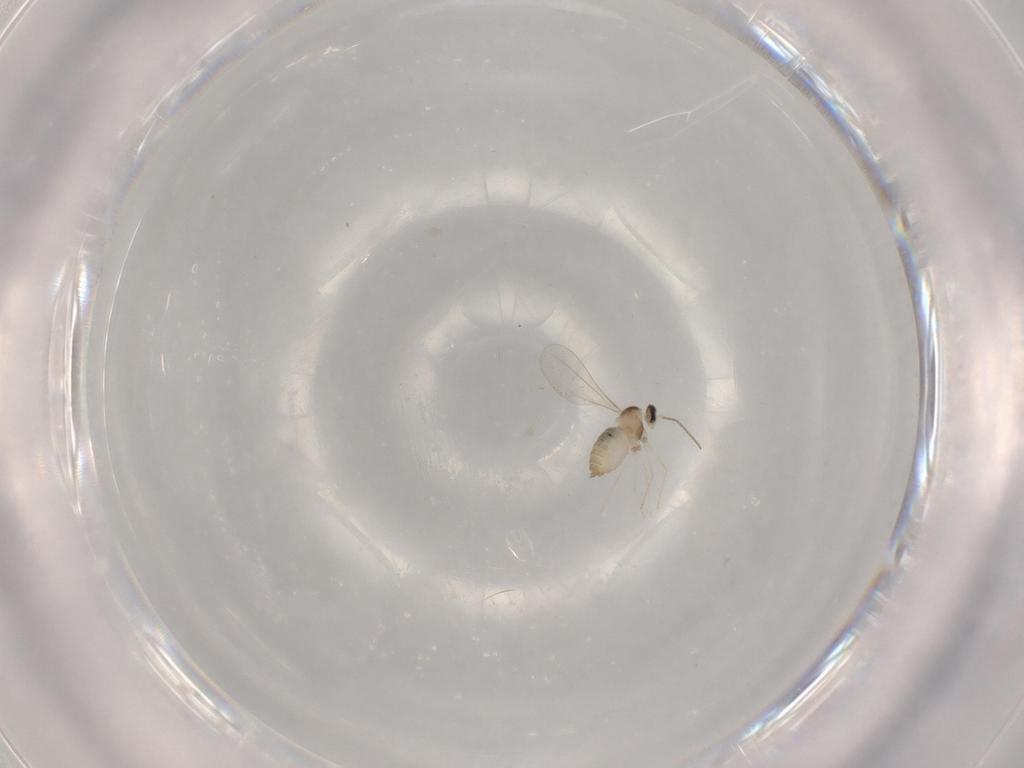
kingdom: Animalia
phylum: Arthropoda
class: Insecta
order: Diptera
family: Cecidomyiidae
